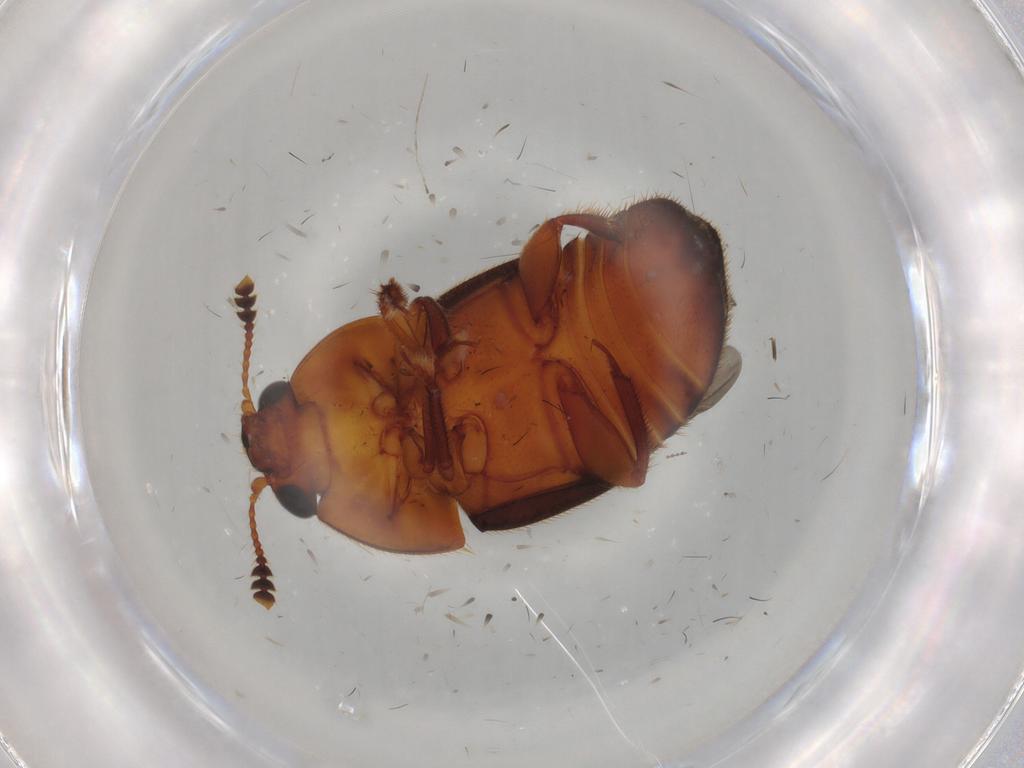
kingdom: Animalia
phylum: Arthropoda
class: Insecta
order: Coleoptera
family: Nitidulidae
